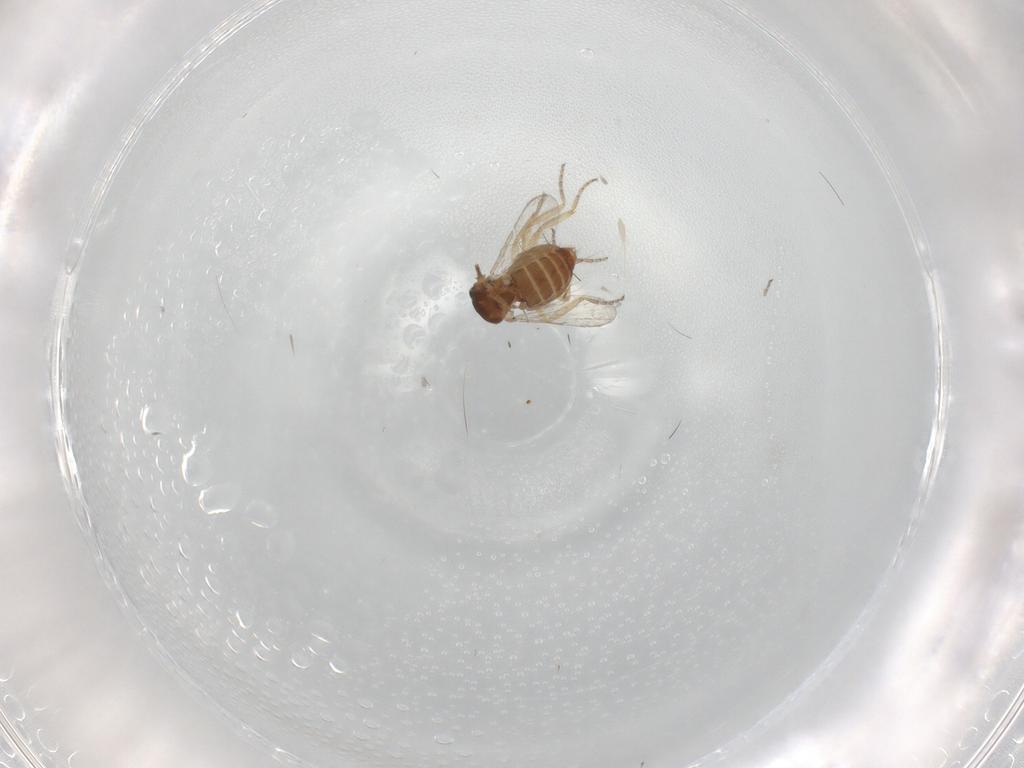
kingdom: Animalia
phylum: Arthropoda
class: Insecta
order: Diptera
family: Ceratopogonidae
